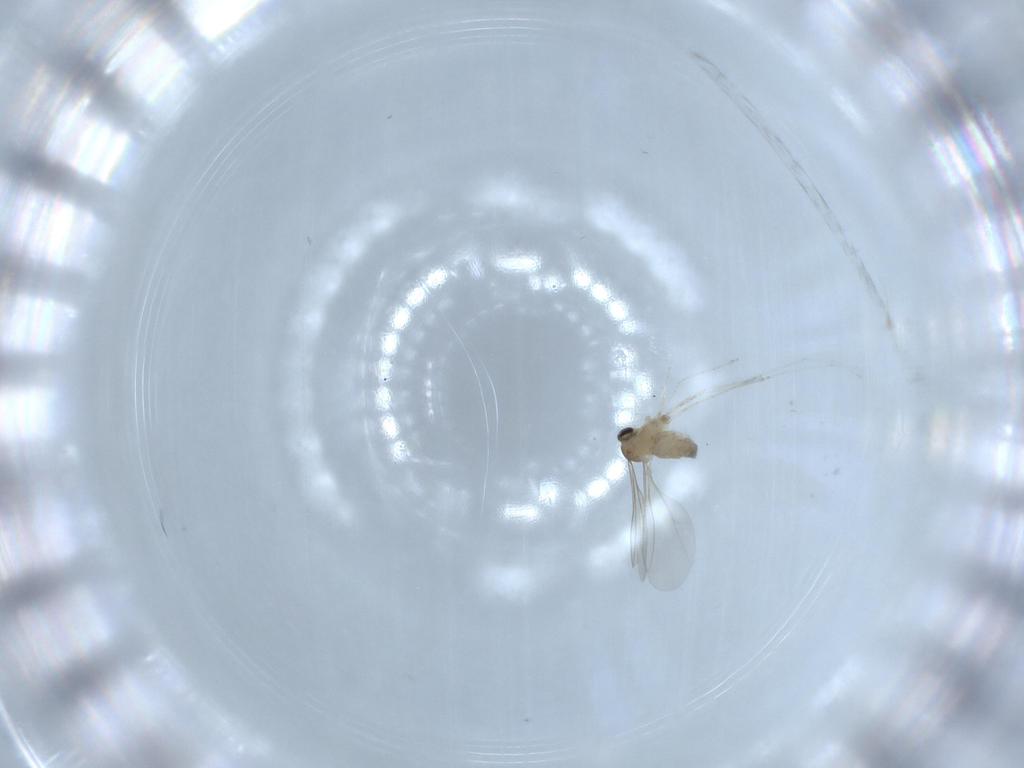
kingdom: Animalia
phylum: Arthropoda
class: Insecta
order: Diptera
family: Cecidomyiidae
